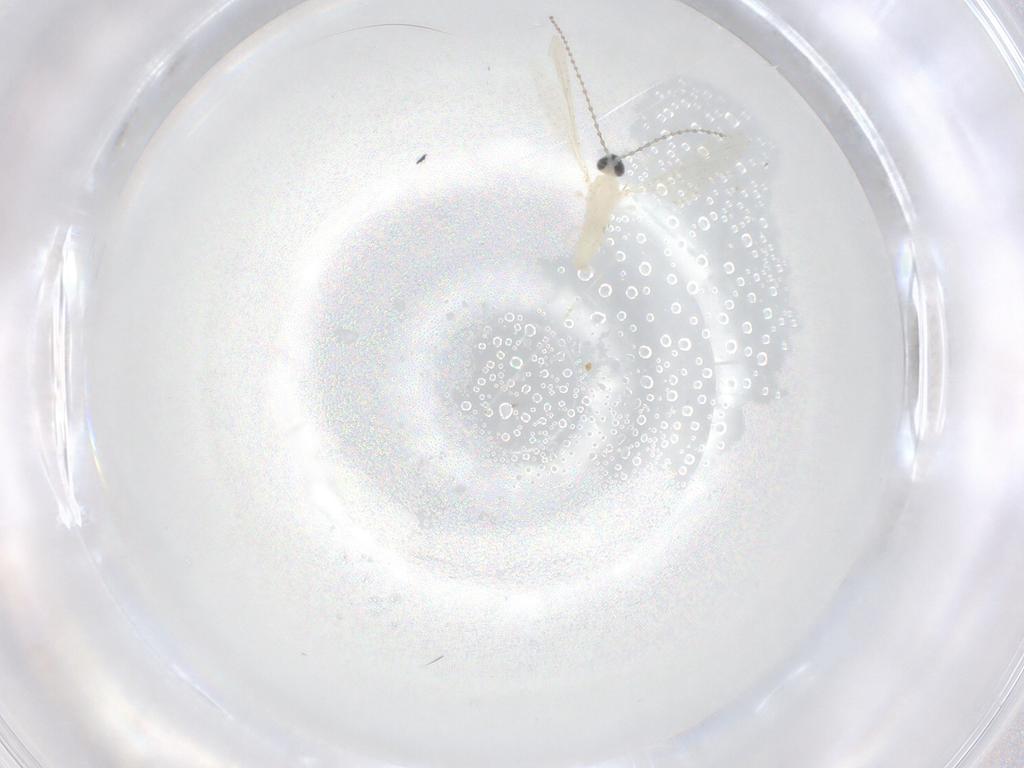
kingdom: Animalia
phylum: Arthropoda
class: Insecta
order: Diptera
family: Cecidomyiidae
